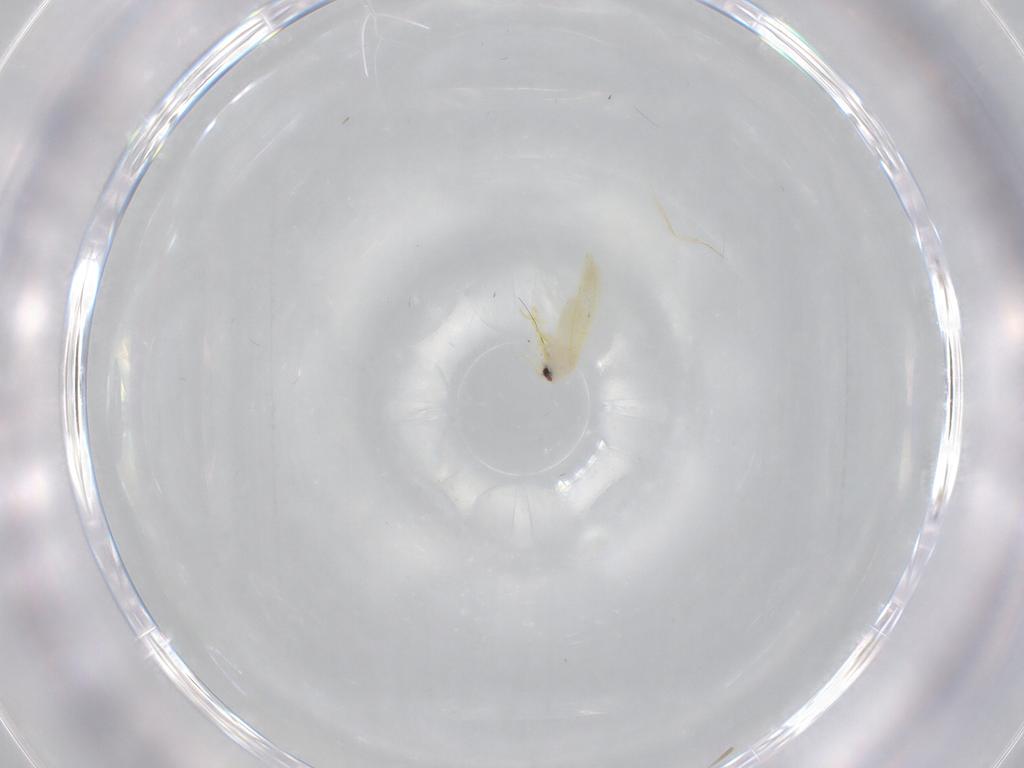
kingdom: Animalia
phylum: Arthropoda
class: Insecta
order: Hemiptera
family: Aleyrodidae
